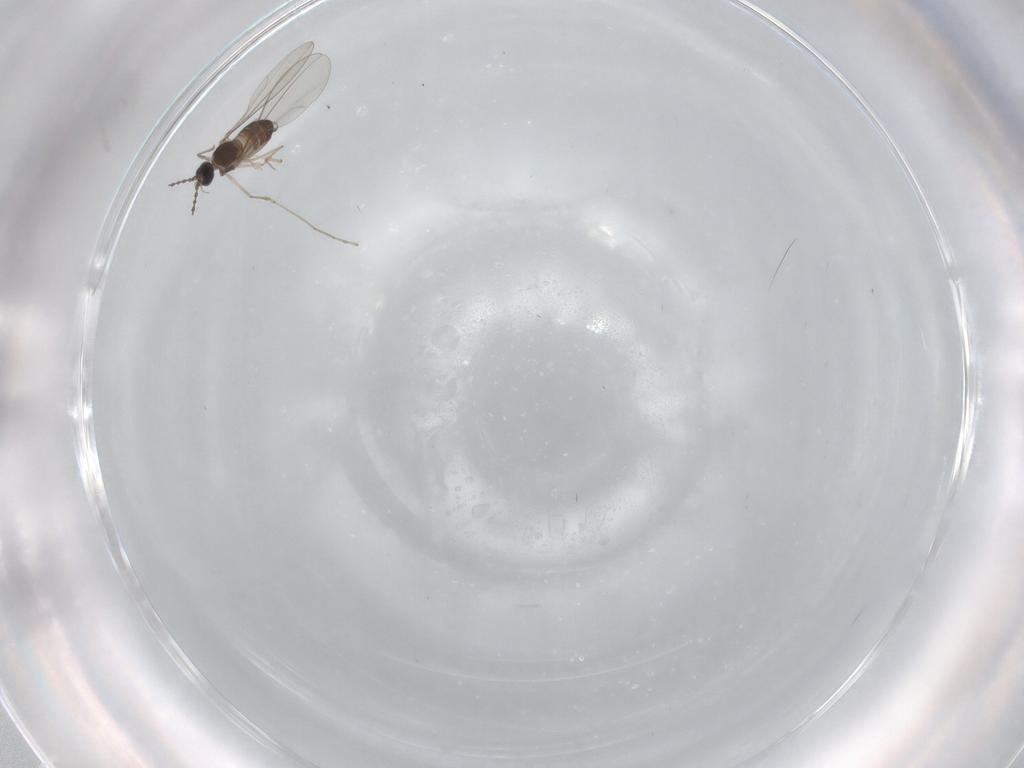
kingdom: Animalia
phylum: Arthropoda
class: Insecta
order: Diptera
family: Cecidomyiidae
